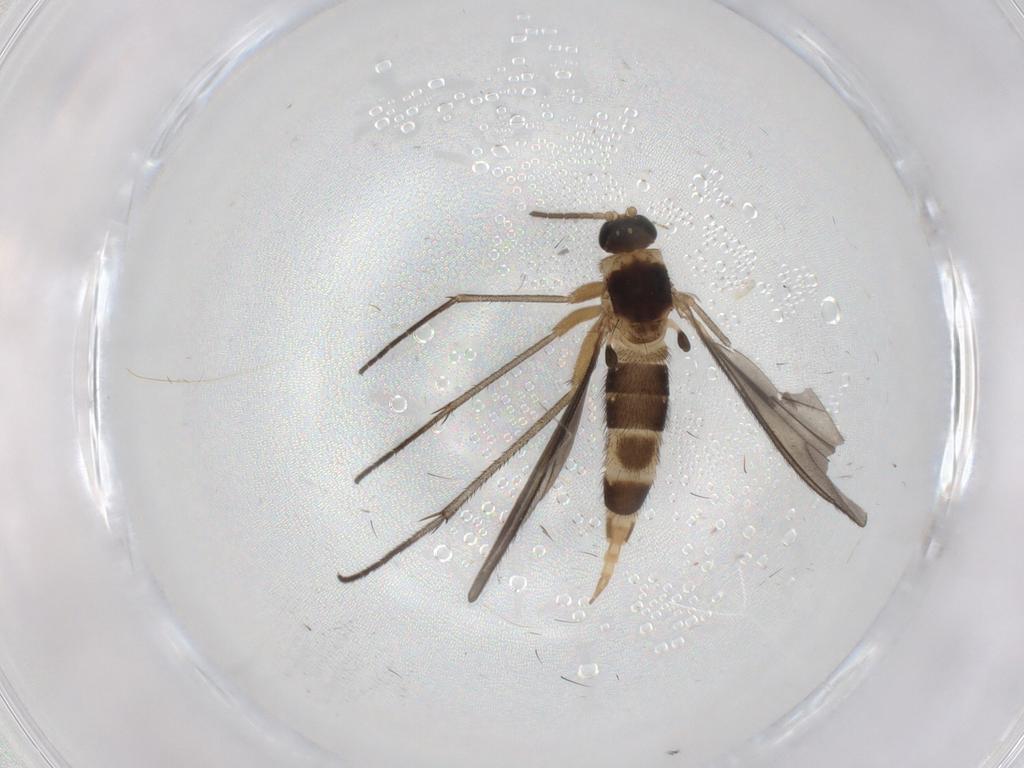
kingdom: Animalia
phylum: Arthropoda
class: Insecta
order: Diptera
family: Sciaridae
